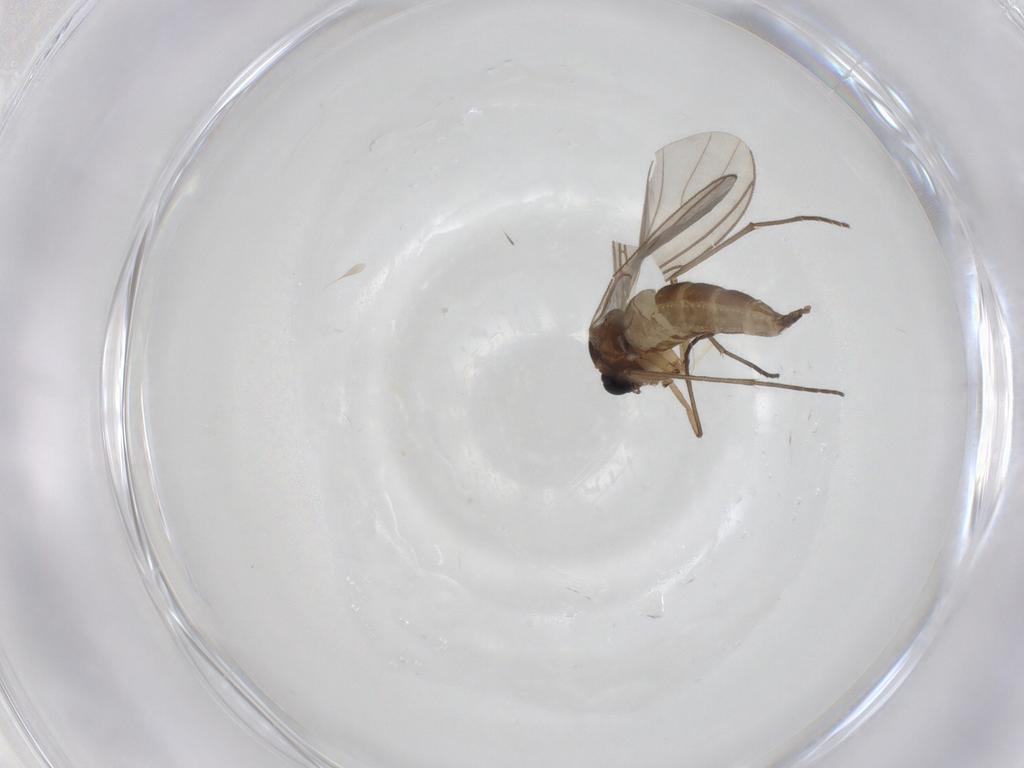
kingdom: Animalia
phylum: Arthropoda
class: Insecta
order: Diptera
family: Sciaridae
